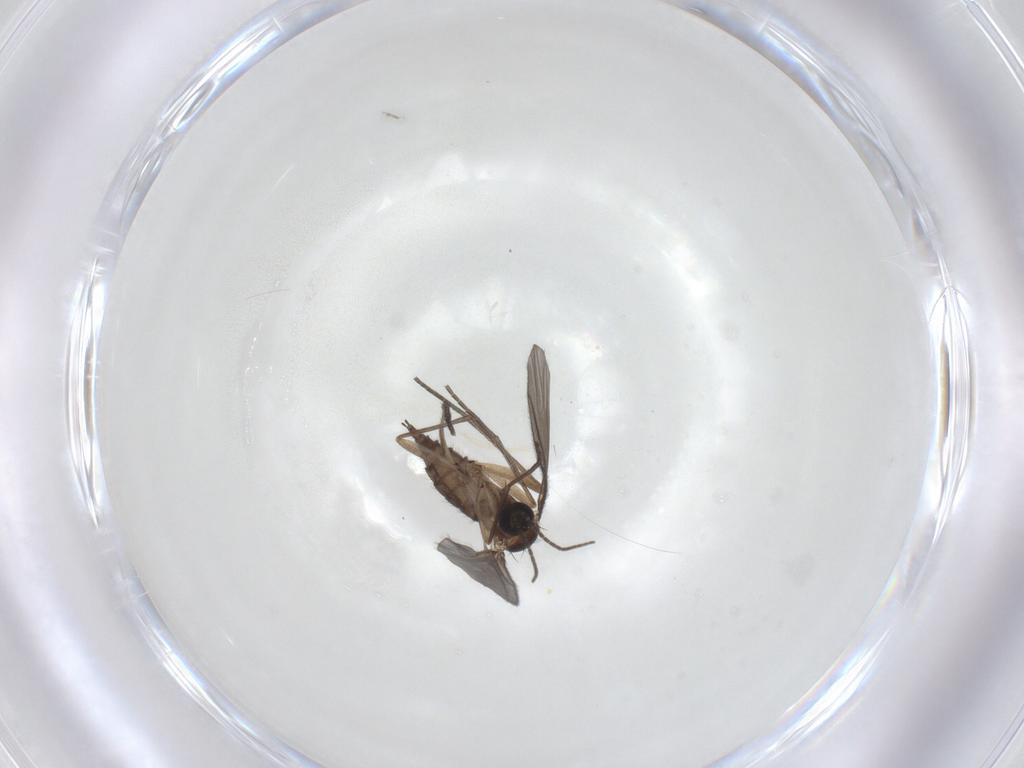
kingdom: Animalia
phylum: Arthropoda
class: Insecta
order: Diptera
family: Sciaridae
